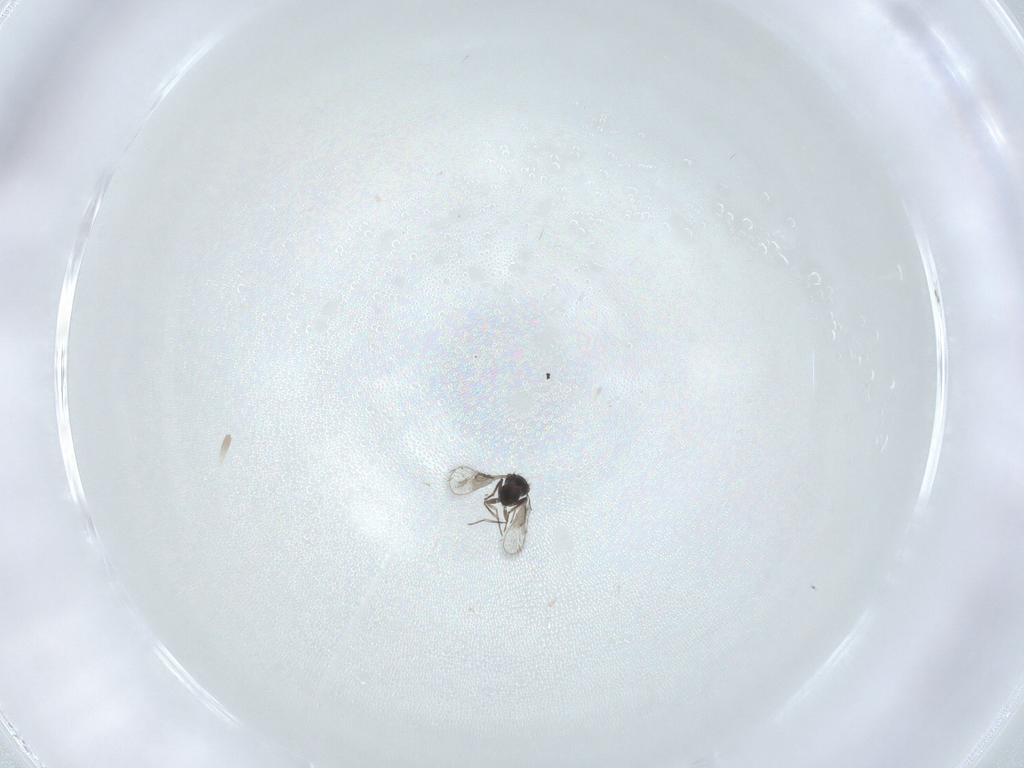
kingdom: Animalia
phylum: Arthropoda
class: Insecta
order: Hymenoptera
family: Trichogrammatidae
